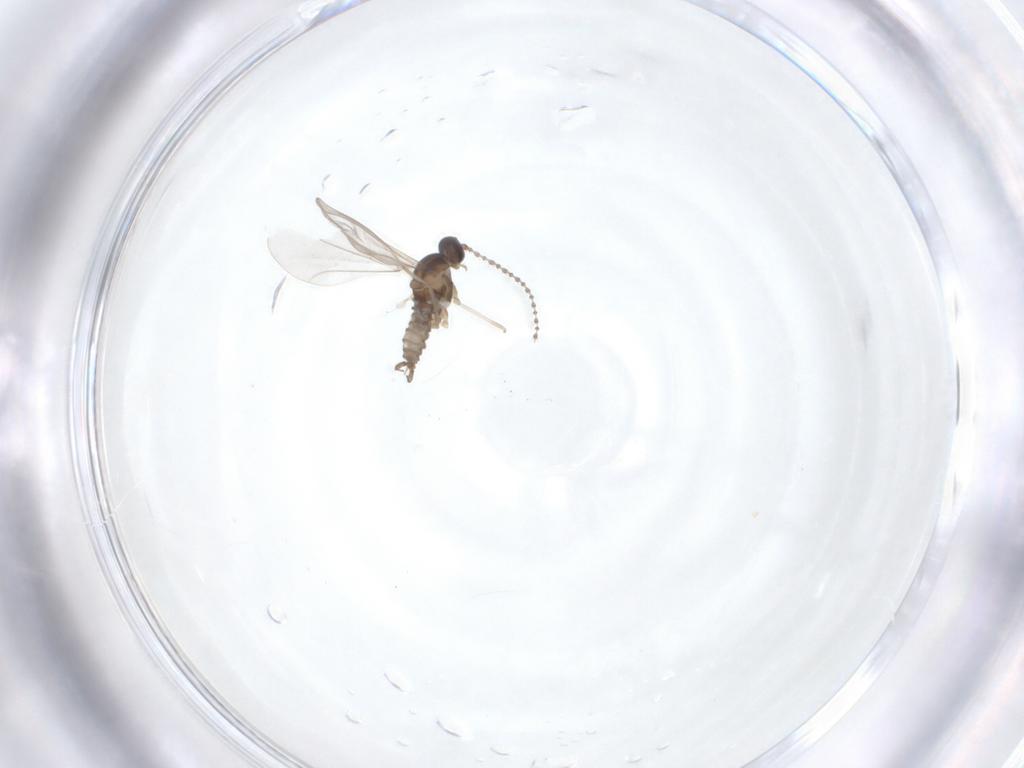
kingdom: Animalia
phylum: Arthropoda
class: Insecta
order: Diptera
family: Cecidomyiidae
